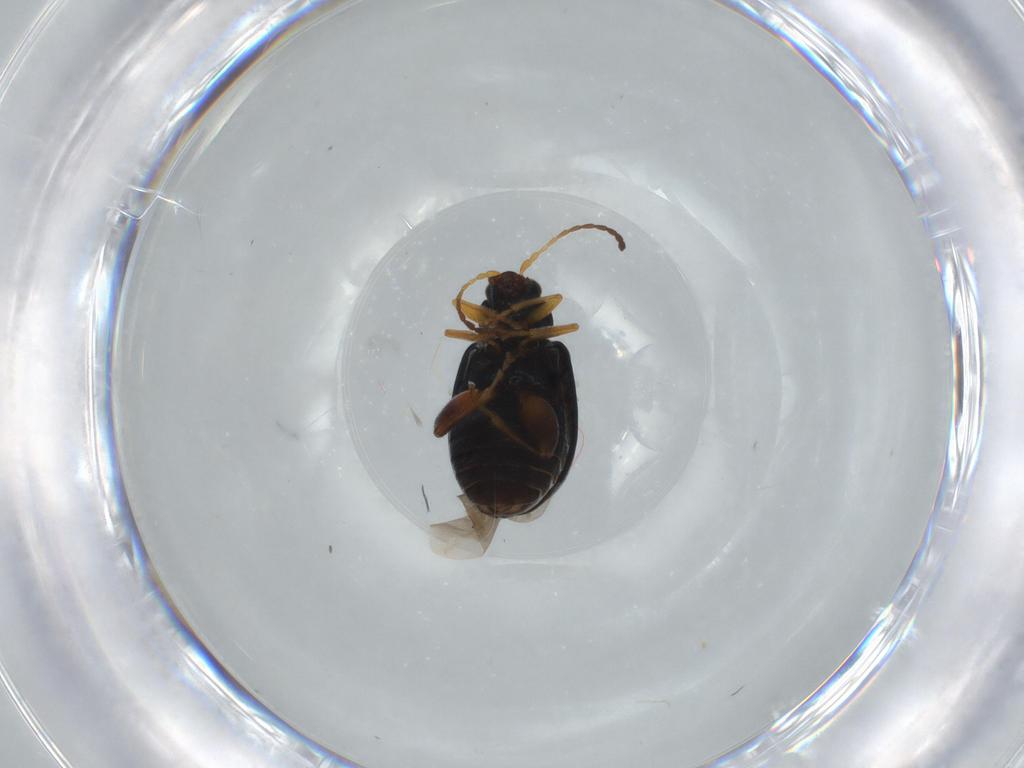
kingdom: Animalia
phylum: Arthropoda
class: Insecta
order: Coleoptera
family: Chrysomelidae
